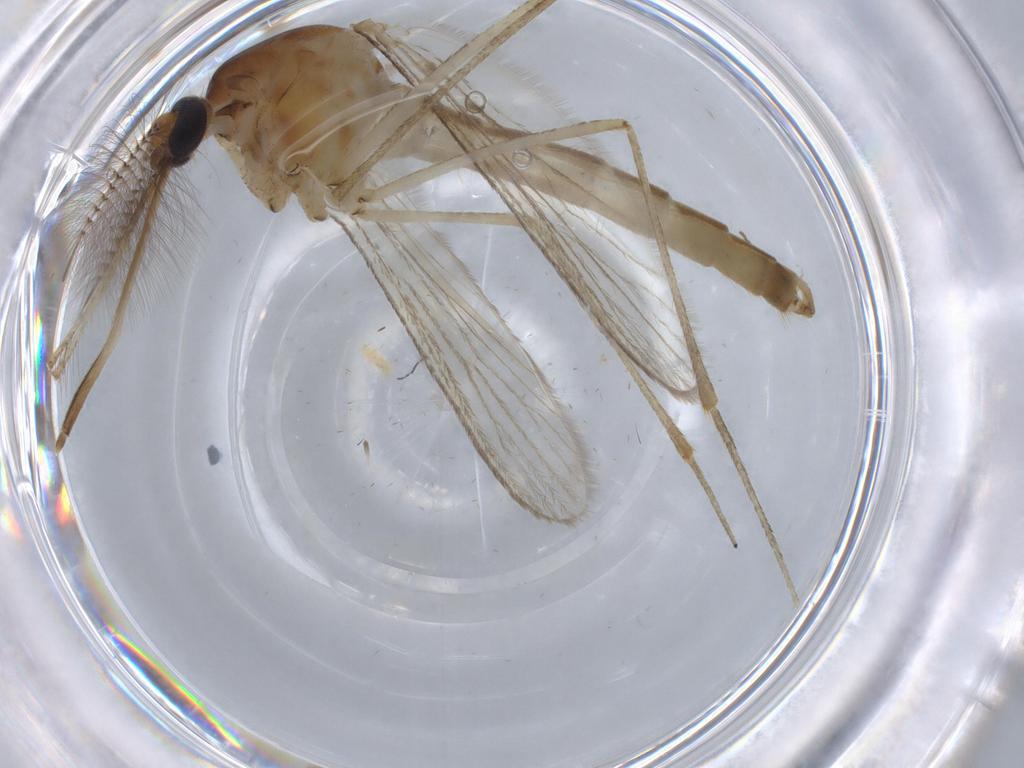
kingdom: Animalia
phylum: Arthropoda
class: Insecta
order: Diptera
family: Culicidae
